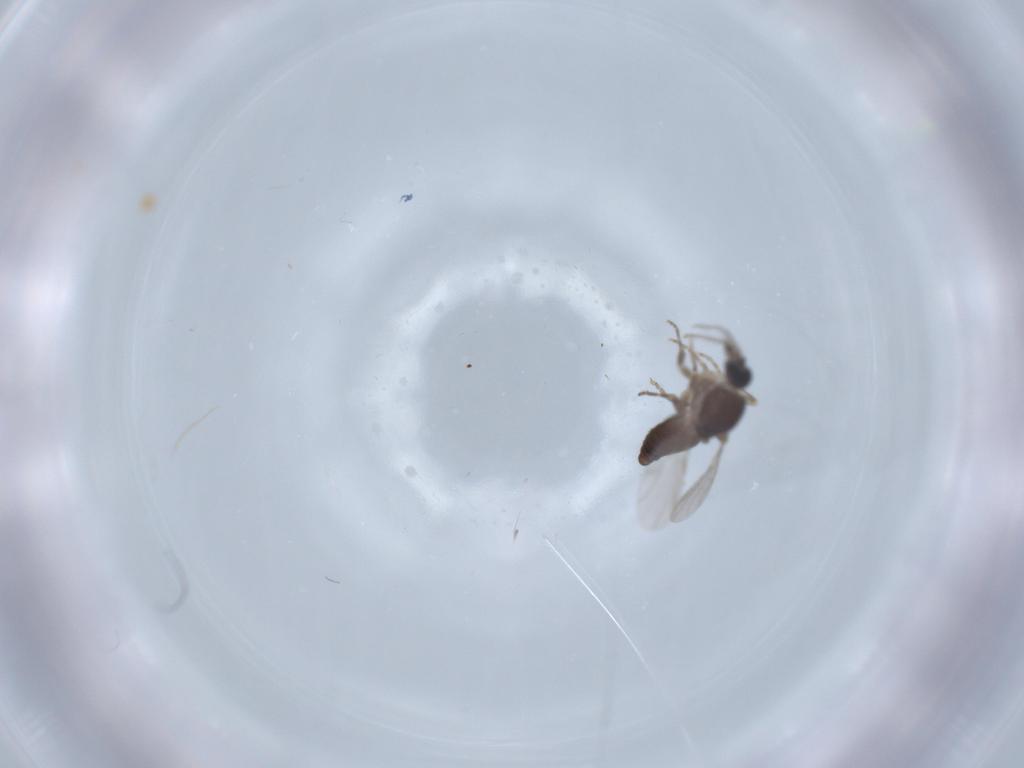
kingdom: Animalia
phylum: Arthropoda
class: Insecta
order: Diptera
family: Ceratopogonidae
